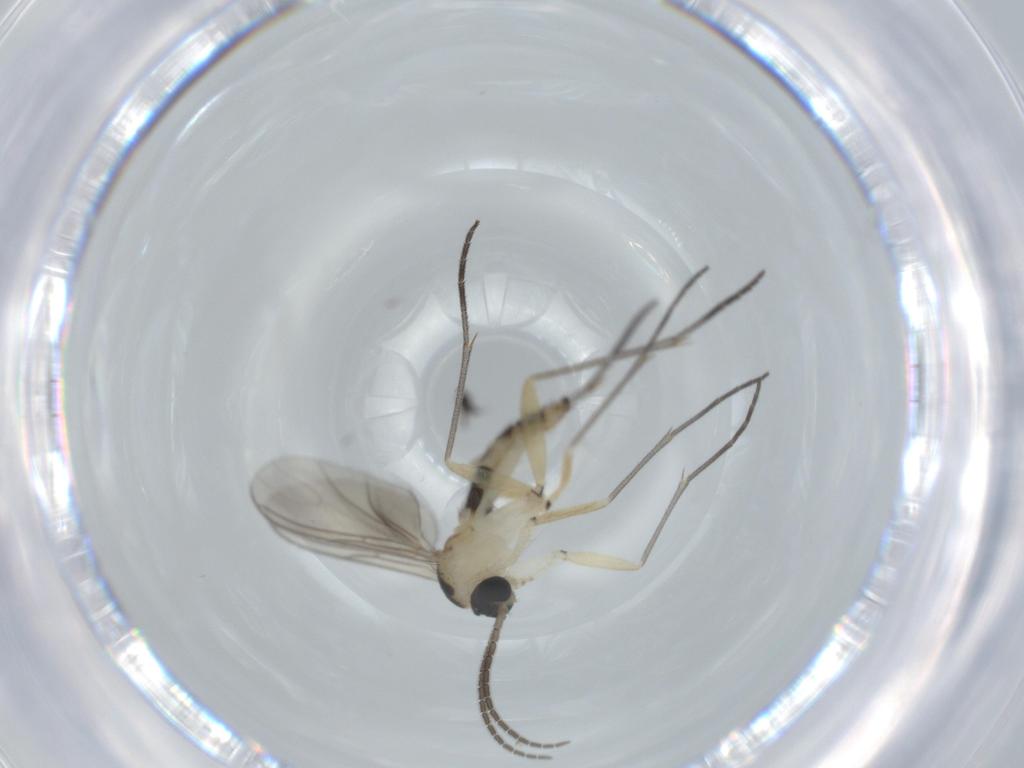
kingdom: Animalia
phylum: Arthropoda
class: Insecta
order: Diptera
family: Sciaridae
